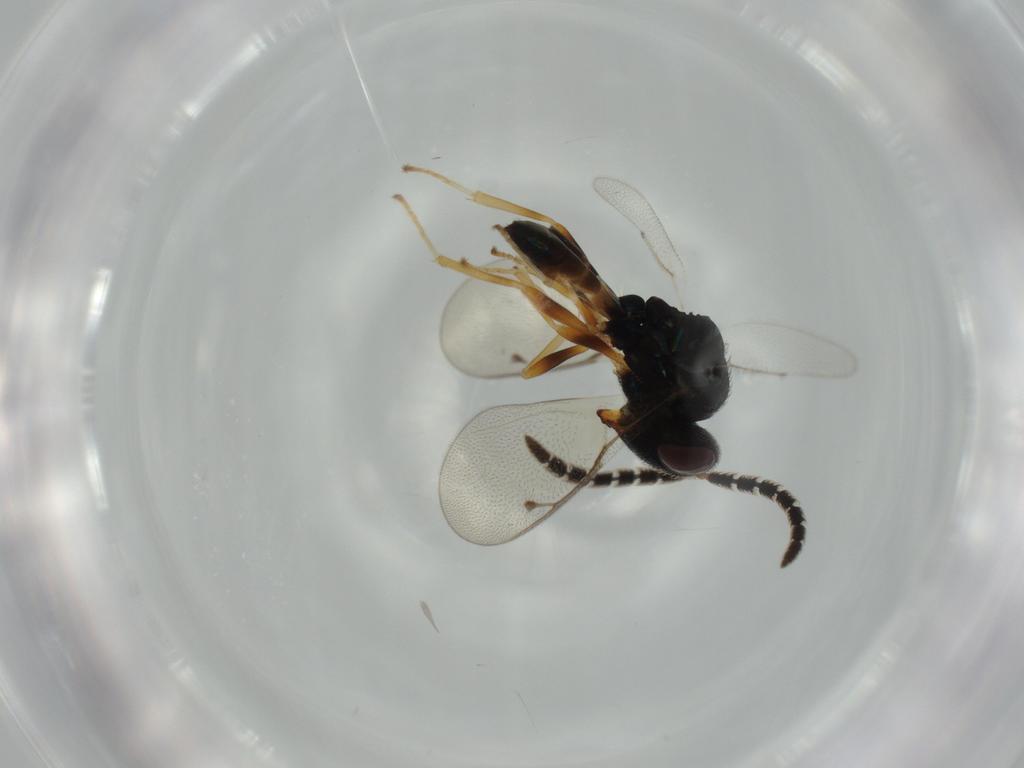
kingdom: Animalia
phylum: Arthropoda
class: Insecta
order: Hymenoptera
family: Agaonidae
